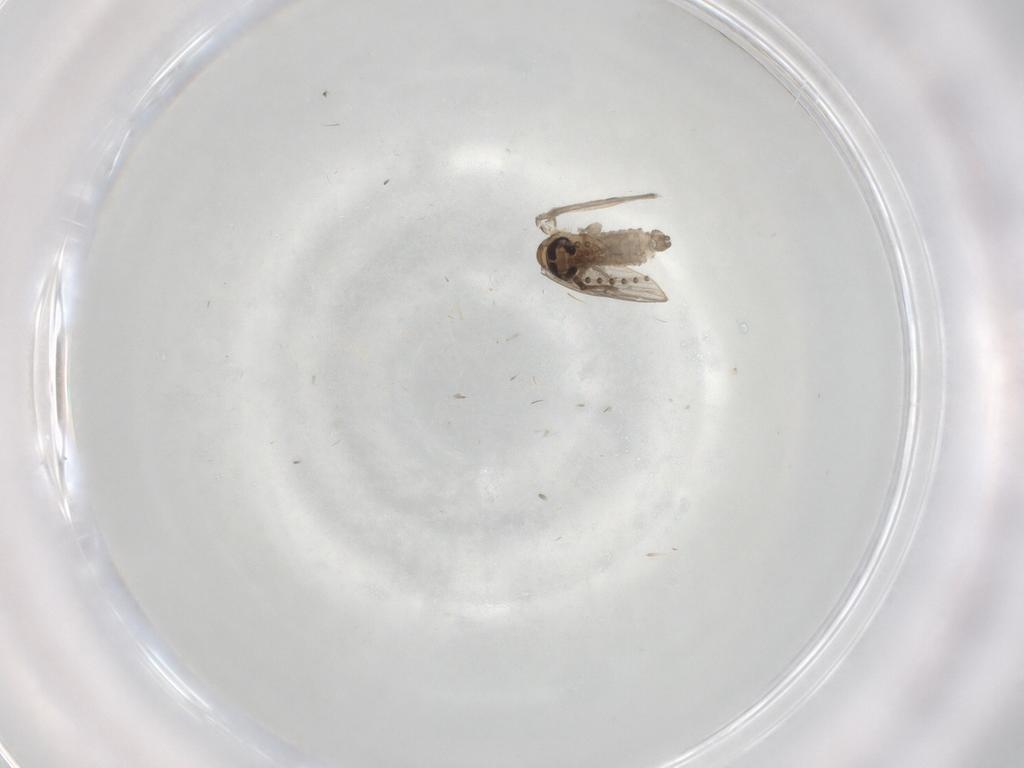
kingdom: Animalia
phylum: Arthropoda
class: Insecta
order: Diptera
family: Psychodidae
